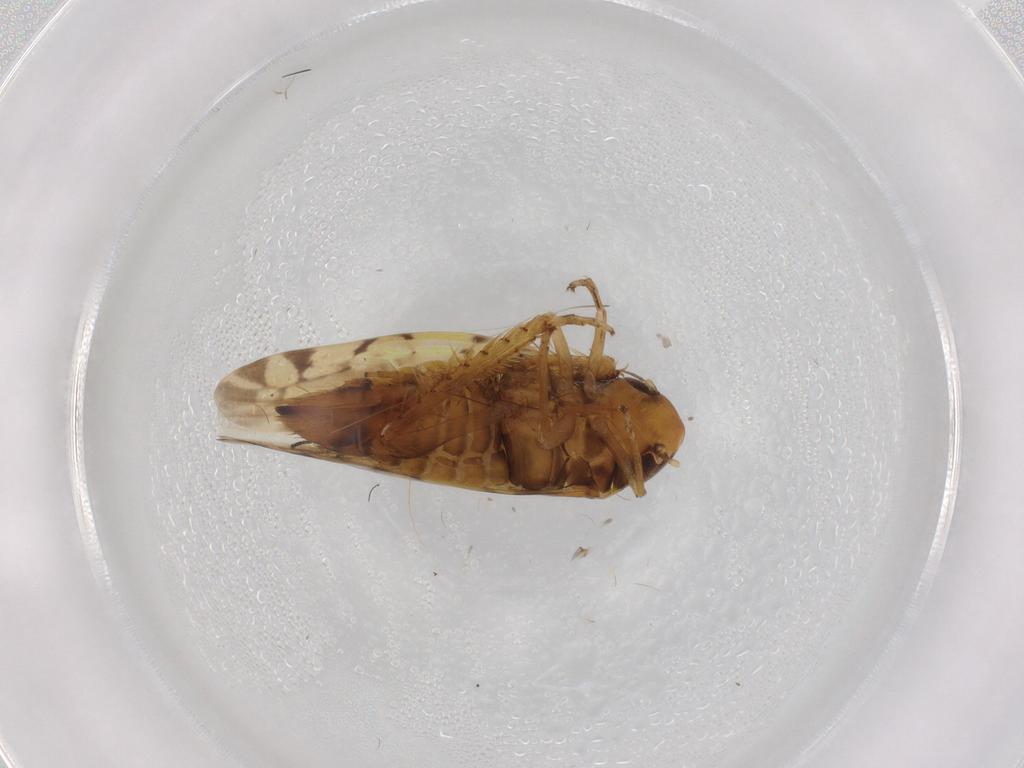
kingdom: Animalia
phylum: Arthropoda
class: Insecta
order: Hemiptera
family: Cicadellidae
